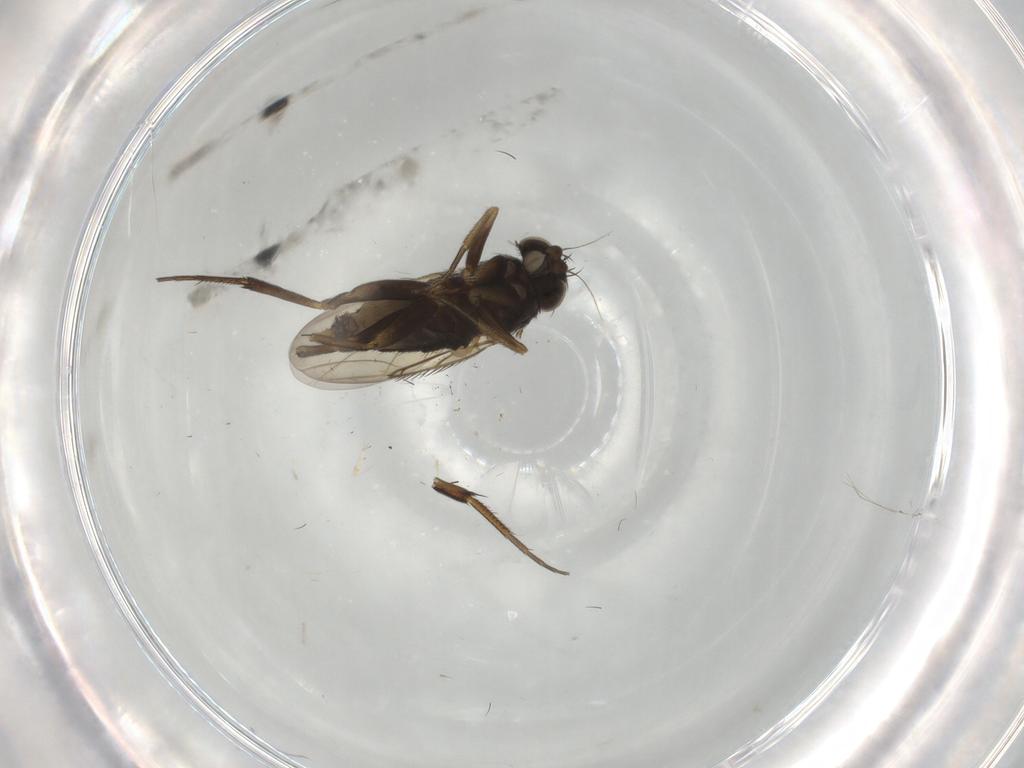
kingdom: Animalia
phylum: Arthropoda
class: Insecta
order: Diptera
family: Phoridae
